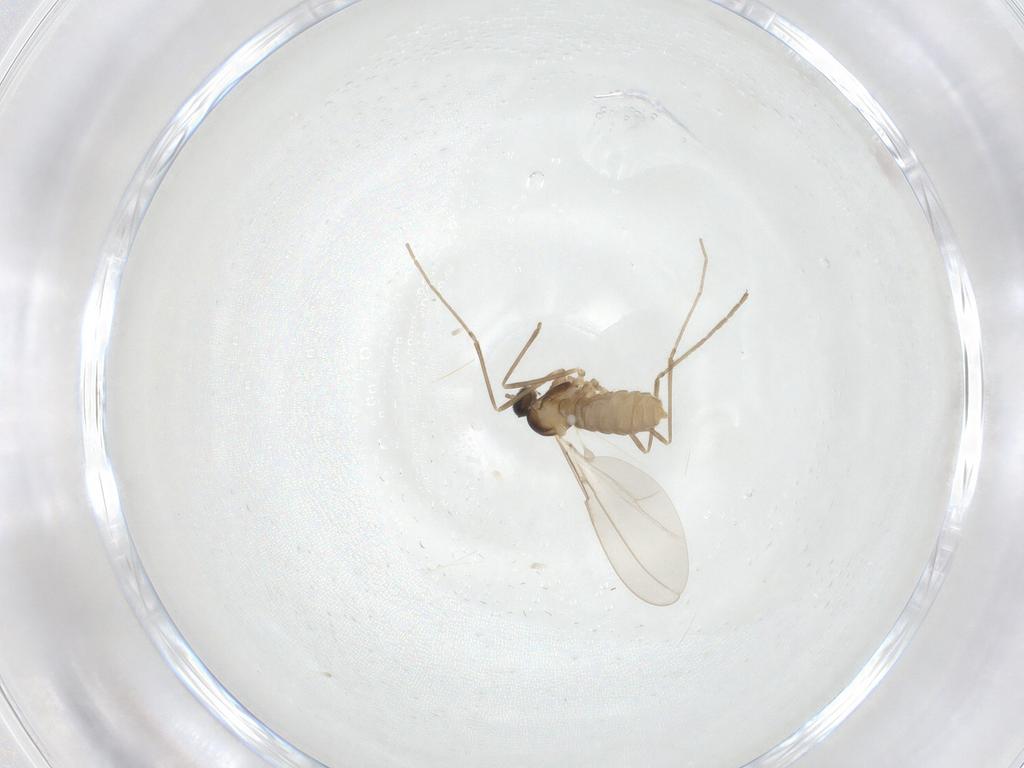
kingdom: Animalia
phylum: Arthropoda
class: Insecta
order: Diptera
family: Cecidomyiidae
